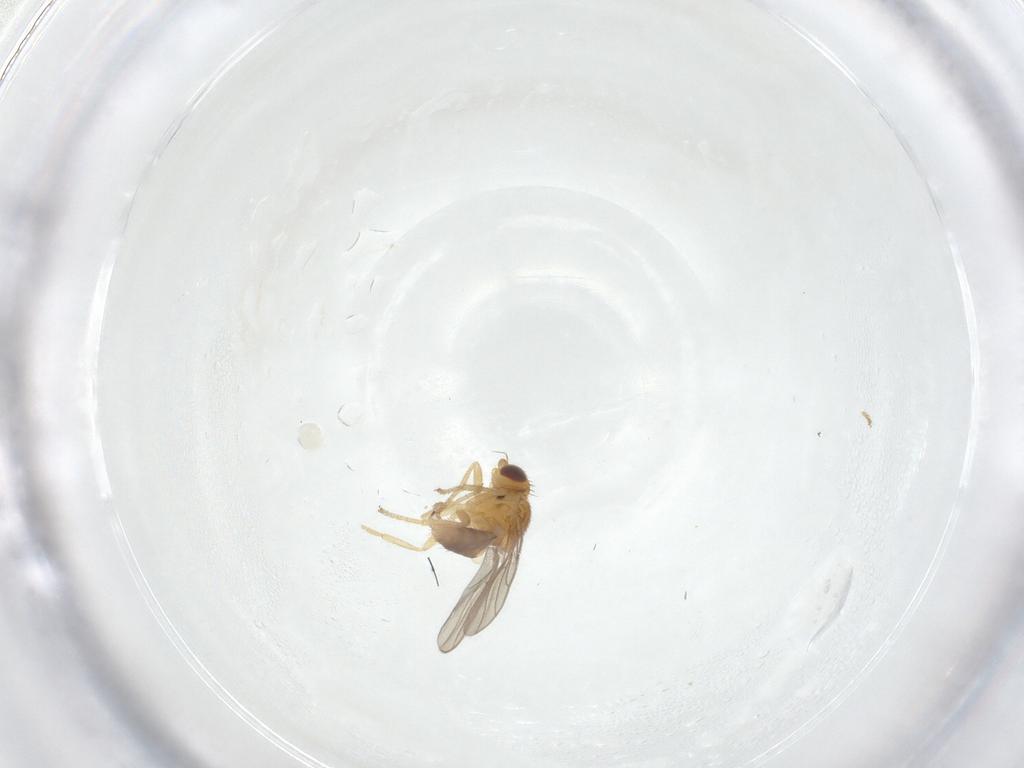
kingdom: Animalia
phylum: Arthropoda
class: Insecta
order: Diptera
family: Chloropidae
